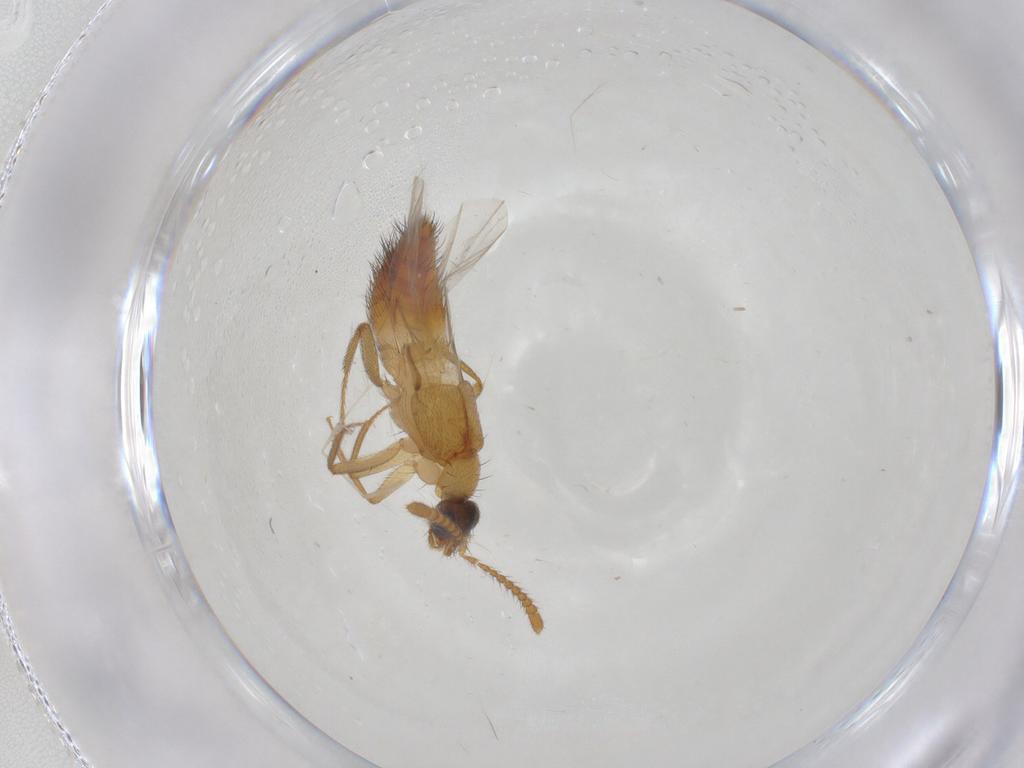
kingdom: Animalia
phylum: Arthropoda
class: Insecta
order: Coleoptera
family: Staphylinidae
